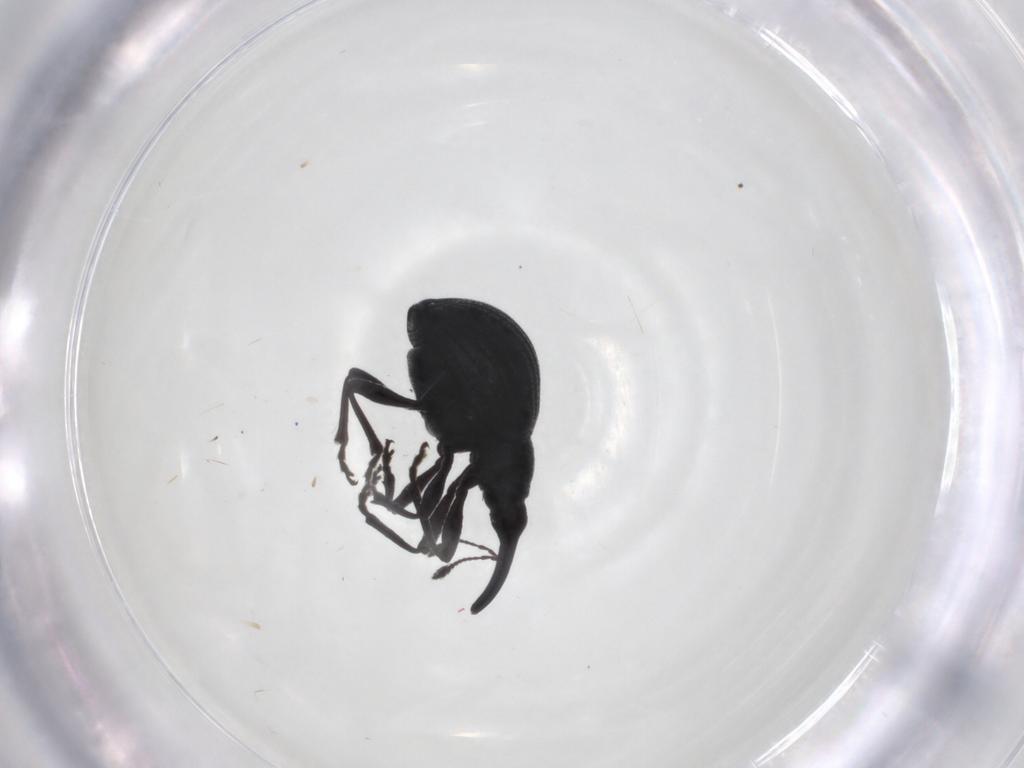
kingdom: Animalia
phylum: Arthropoda
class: Insecta
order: Coleoptera
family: Brentidae
